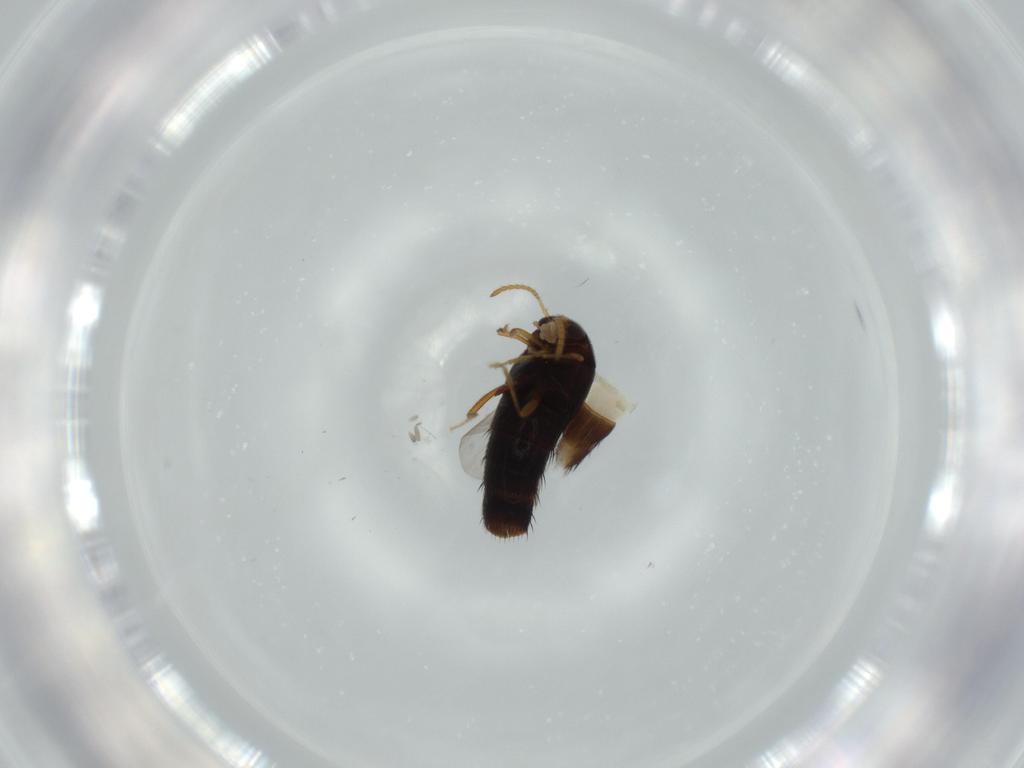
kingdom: Animalia
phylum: Arthropoda
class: Insecta
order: Coleoptera
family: Staphylinidae
